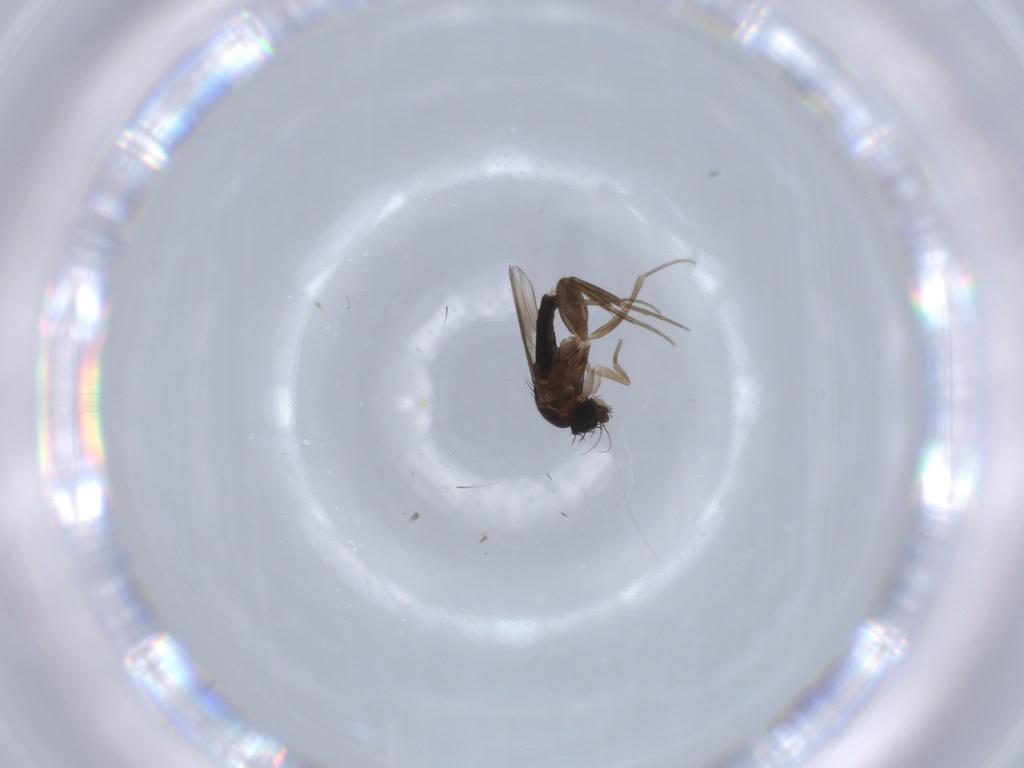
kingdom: Animalia
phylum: Arthropoda
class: Insecta
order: Diptera
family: Phoridae
